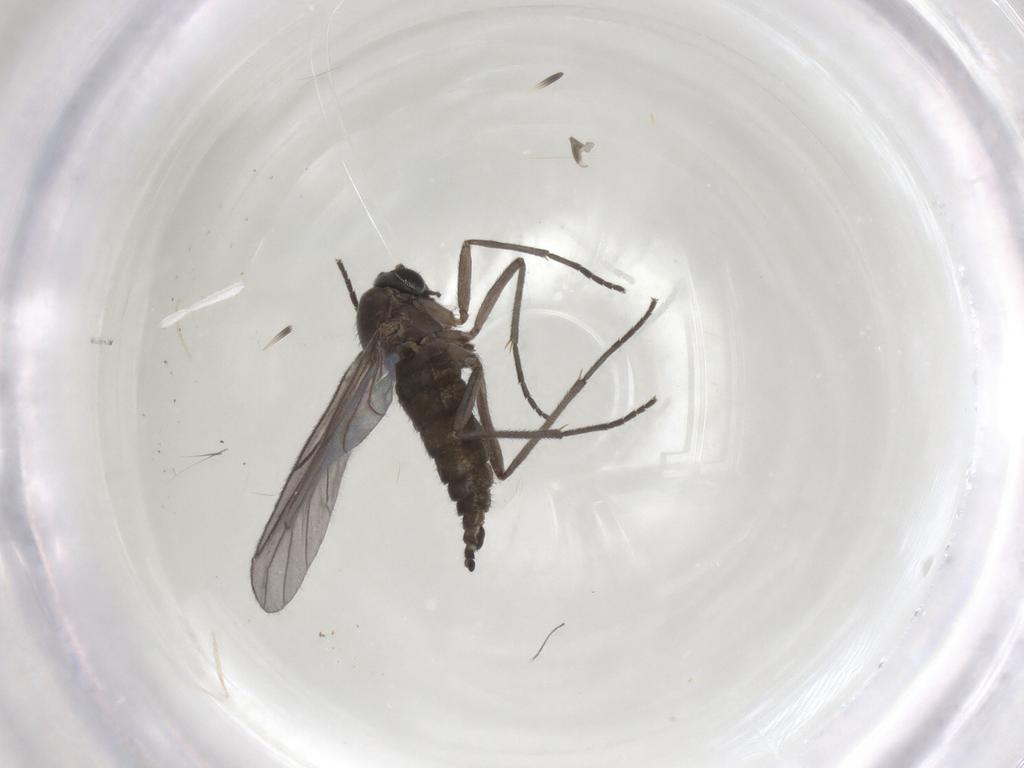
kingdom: Animalia
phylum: Arthropoda
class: Insecta
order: Diptera
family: Sciaridae
